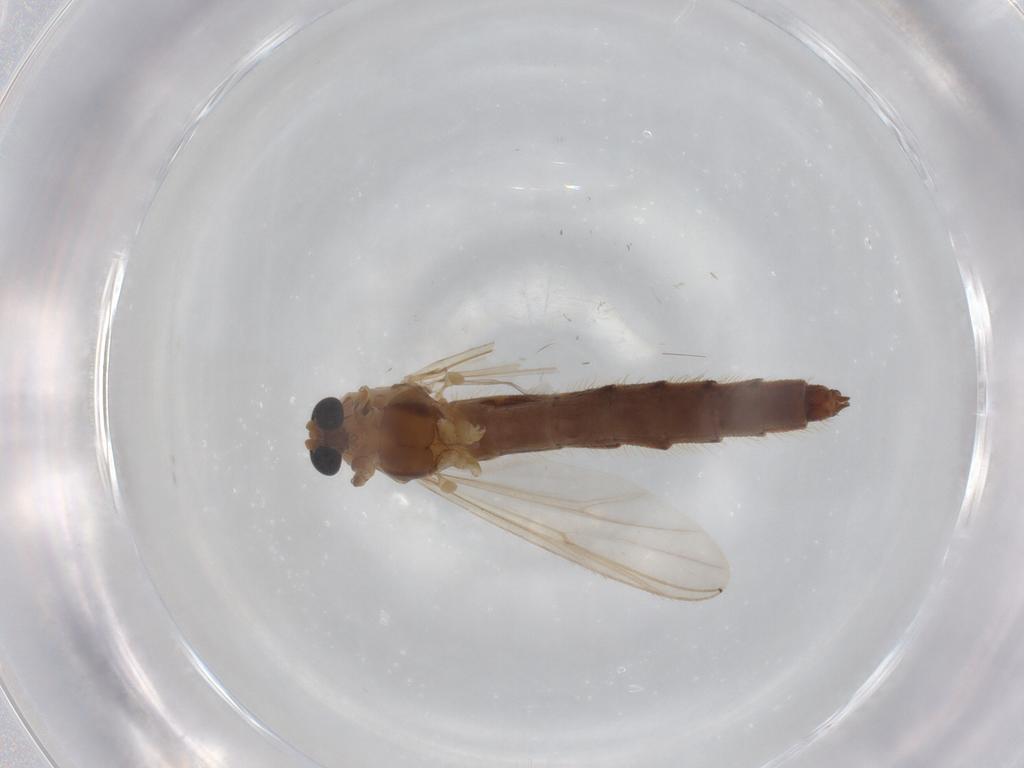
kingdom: Animalia
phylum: Arthropoda
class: Insecta
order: Diptera
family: Chironomidae
